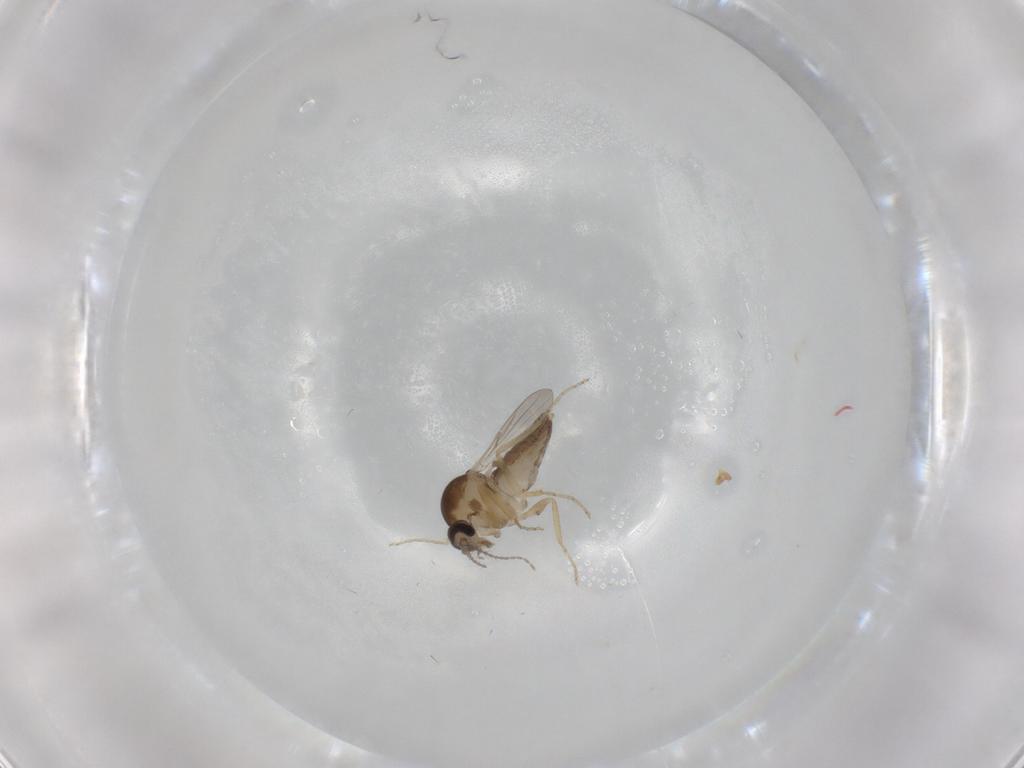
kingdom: Animalia
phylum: Arthropoda
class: Insecta
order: Diptera
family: Ceratopogonidae
